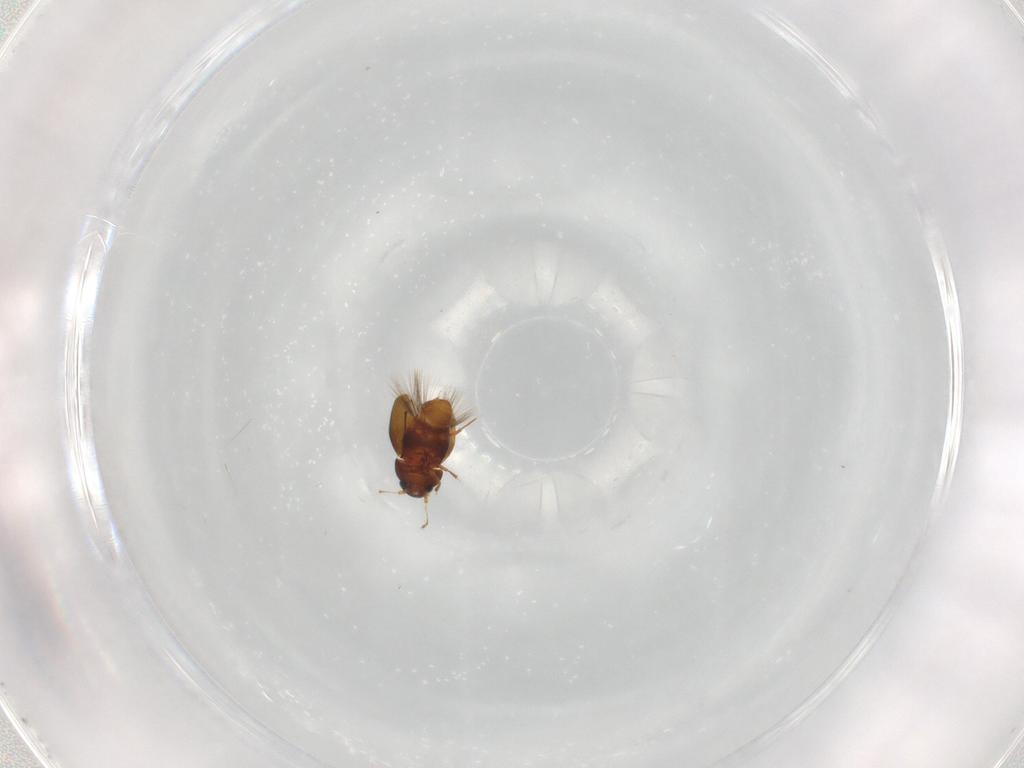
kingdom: Animalia
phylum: Arthropoda
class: Insecta
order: Coleoptera
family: Ptiliidae
